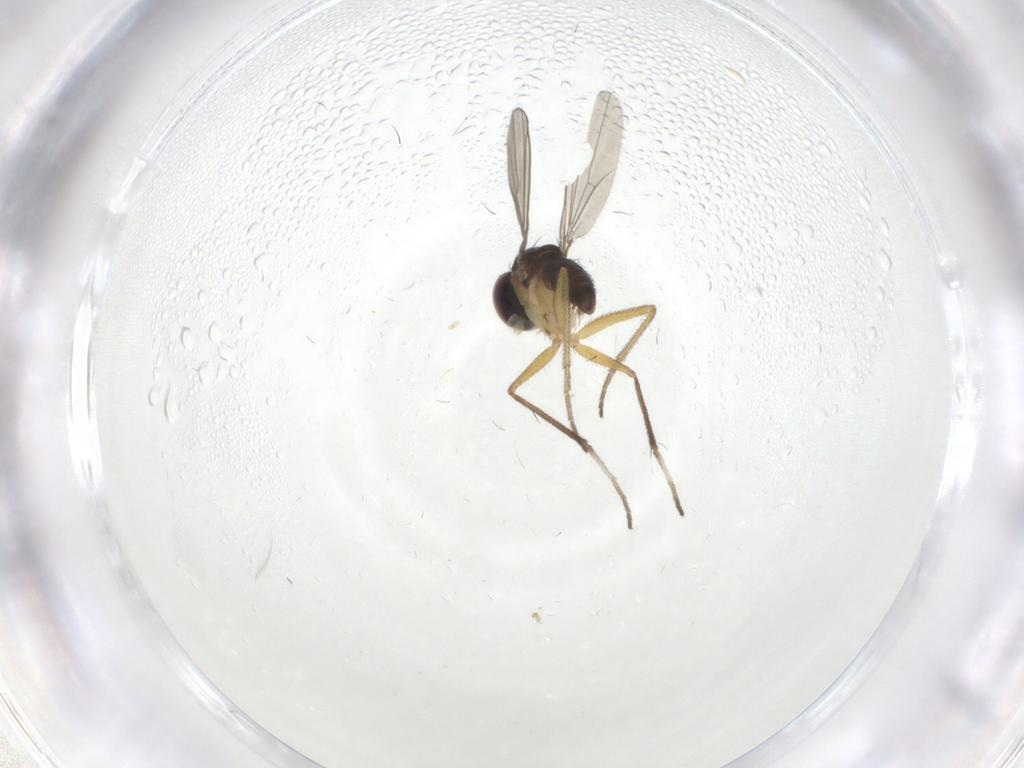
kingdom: Animalia
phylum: Arthropoda
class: Insecta
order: Diptera
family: Dolichopodidae
